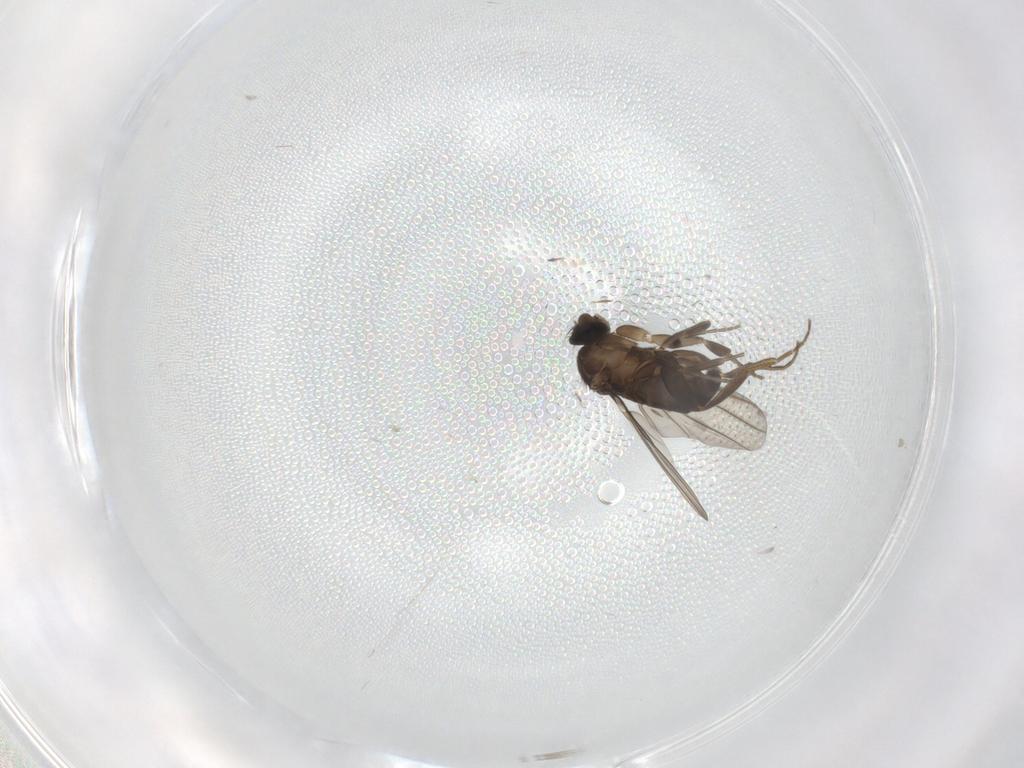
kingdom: Animalia
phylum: Arthropoda
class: Insecta
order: Diptera
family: Phoridae
